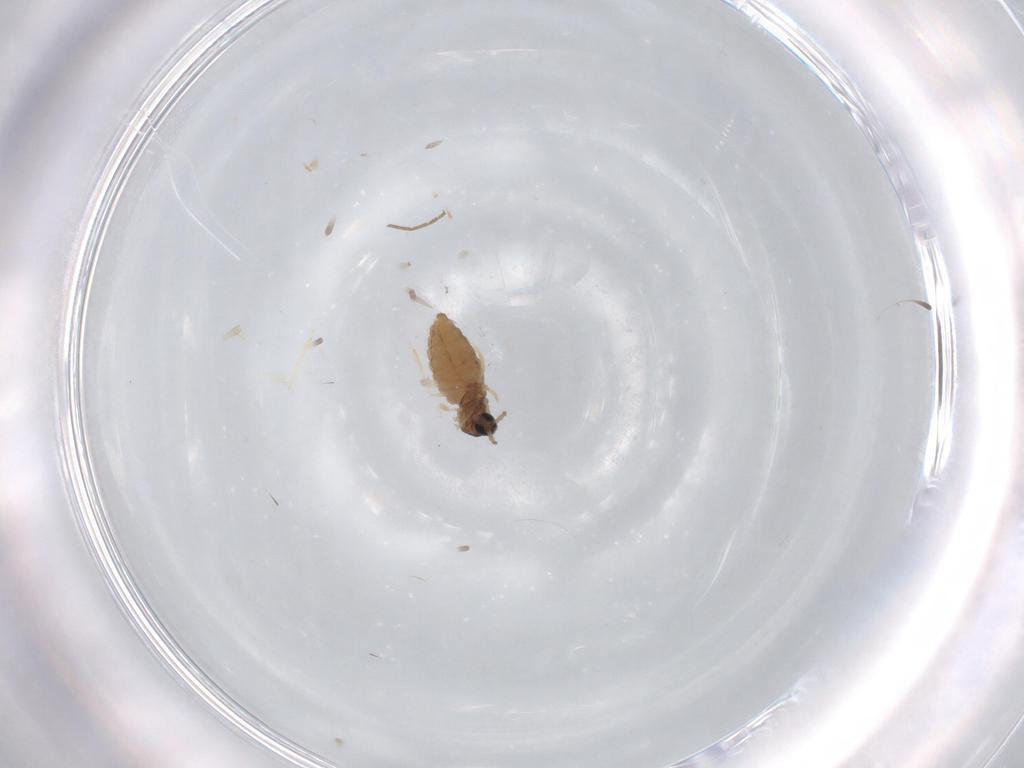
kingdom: Animalia
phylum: Arthropoda
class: Insecta
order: Diptera
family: Cecidomyiidae
